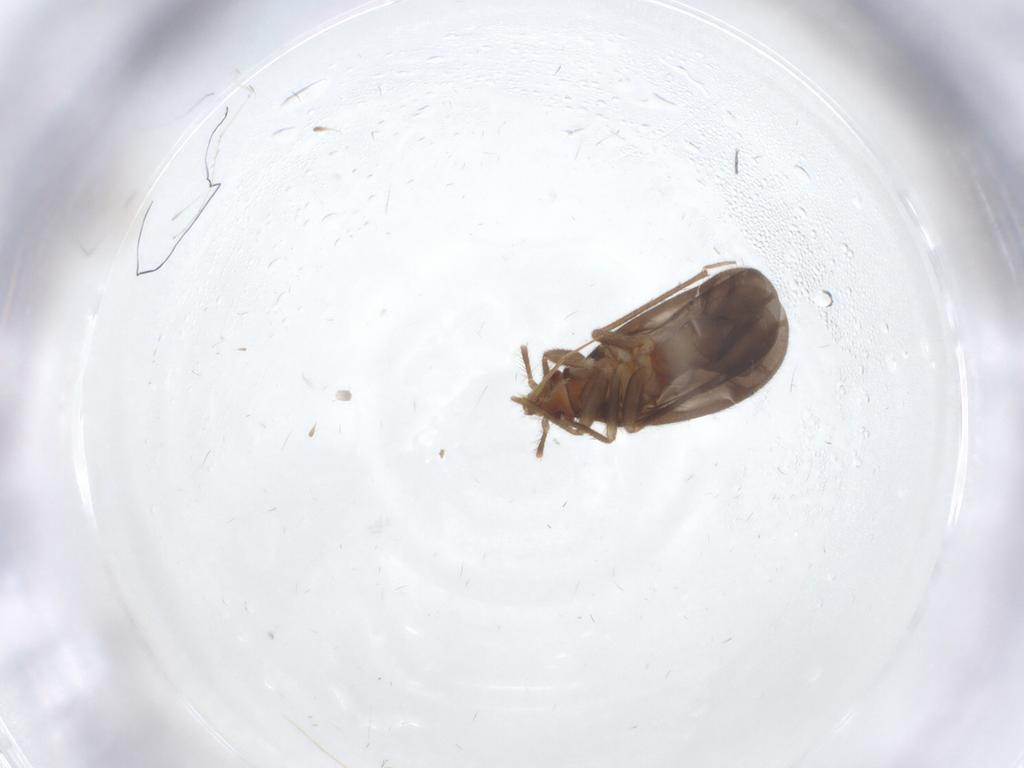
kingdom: Animalia
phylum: Arthropoda
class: Insecta
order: Hemiptera
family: Ceratocombidae
